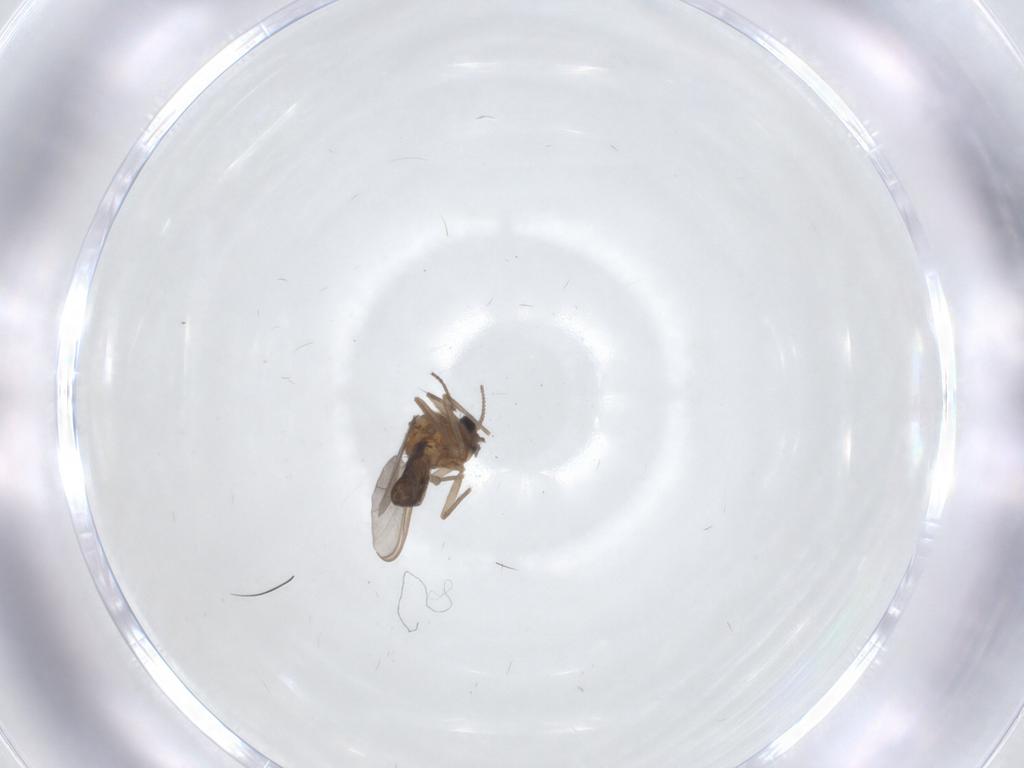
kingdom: Animalia
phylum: Arthropoda
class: Insecta
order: Diptera
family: Chironomidae
